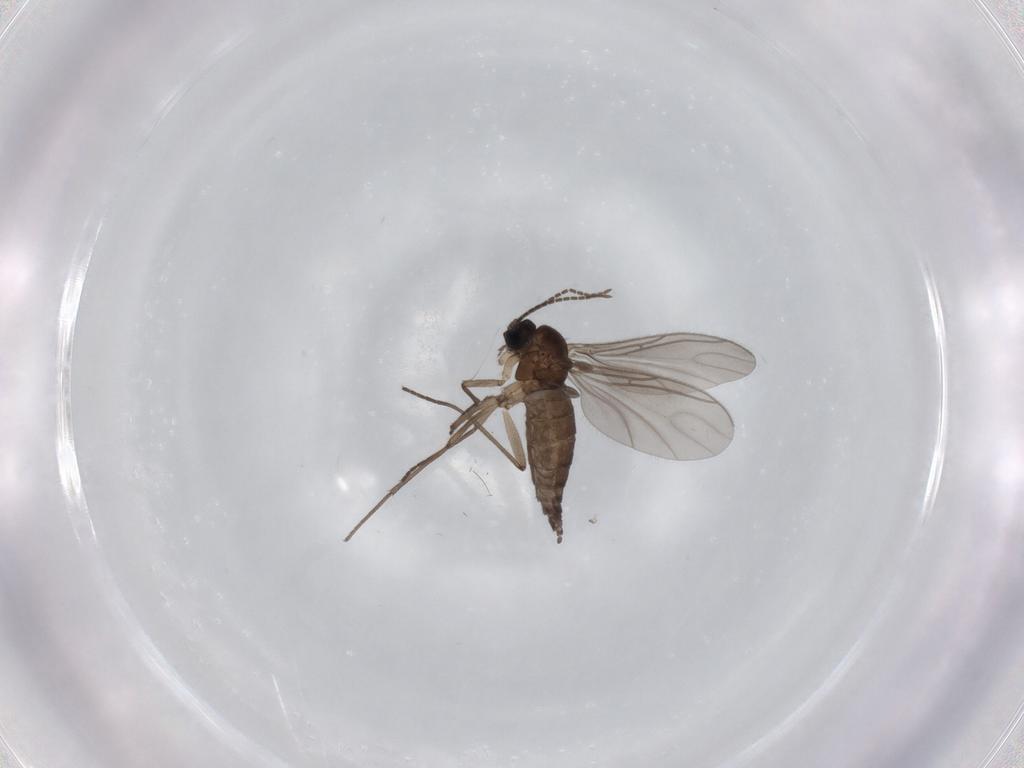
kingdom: Animalia
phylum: Arthropoda
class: Insecta
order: Diptera
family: Sciaridae
